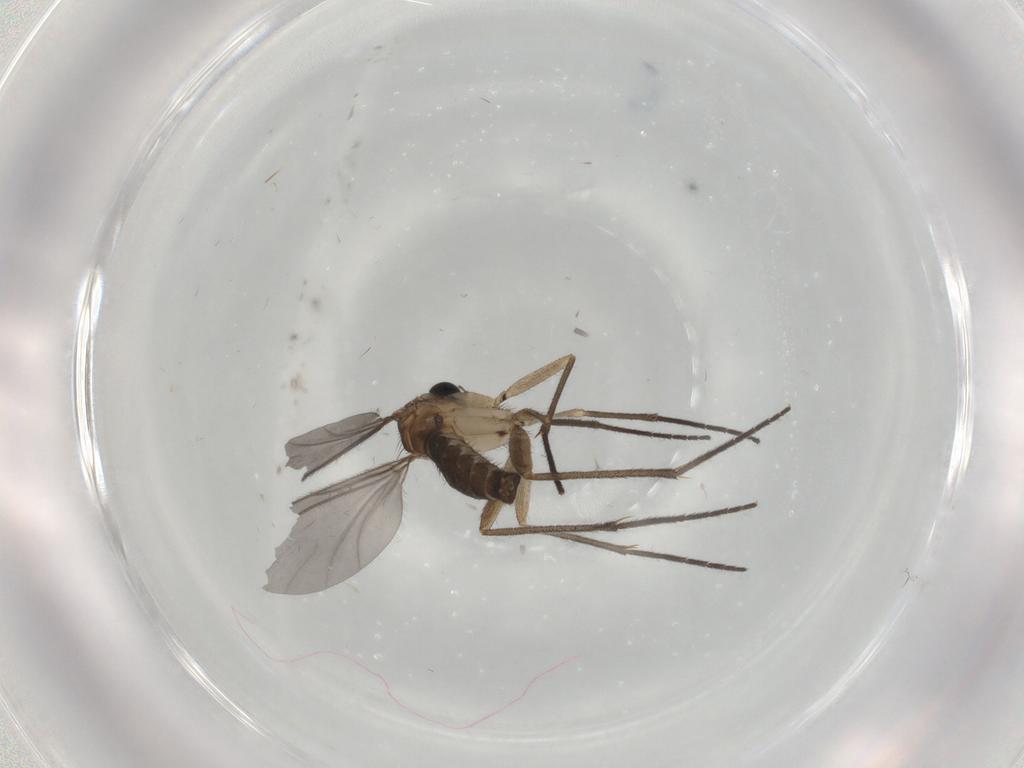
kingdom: Animalia
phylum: Arthropoda
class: Insecta
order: Diptera
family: Sciaridae
